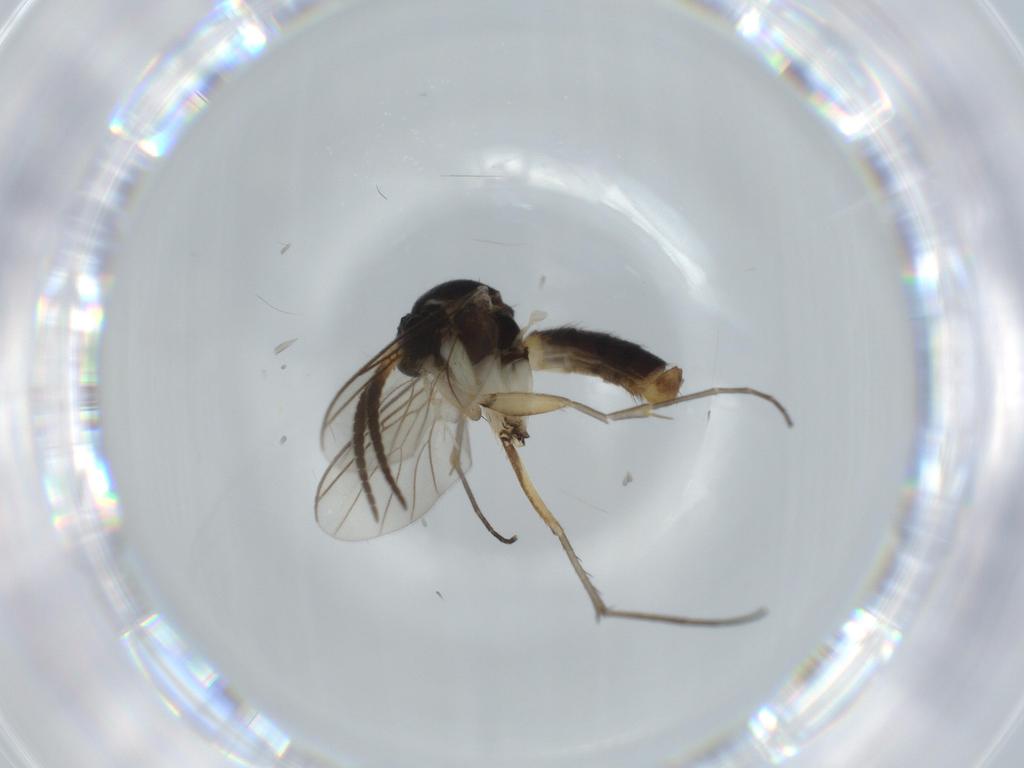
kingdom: Animalia
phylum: Arthropoda
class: Insecta
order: Diptera
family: Mycetophilidae
